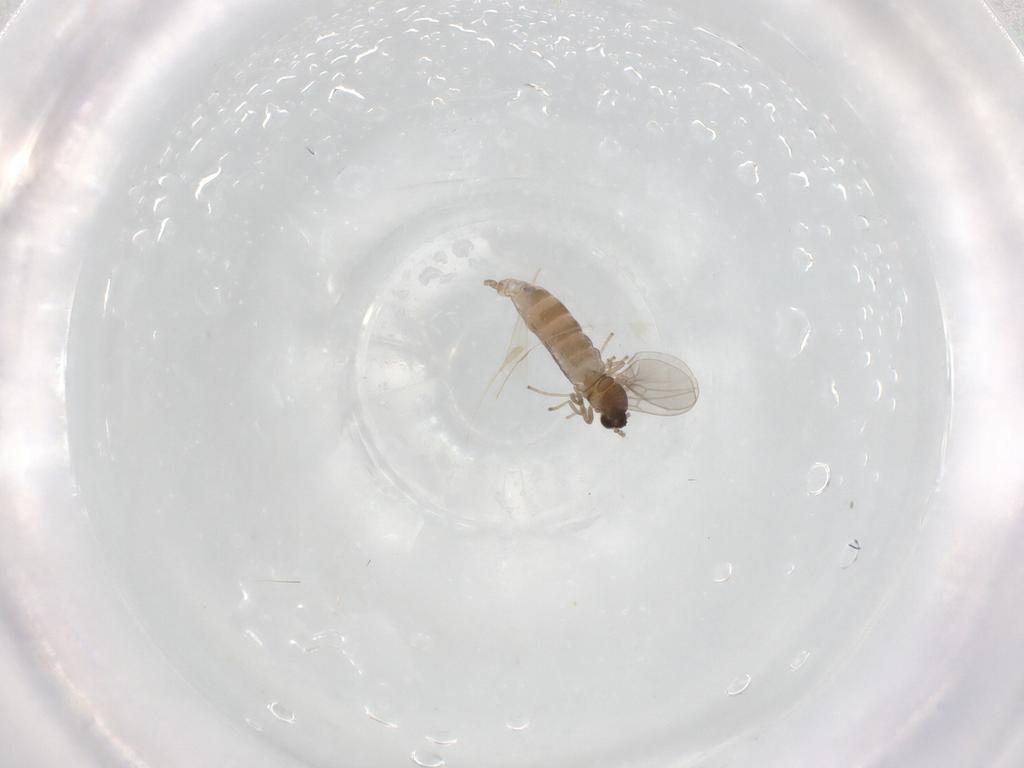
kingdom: Animalia
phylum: Arthropoda
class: Insecta
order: Diptera
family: Cecidomyiidae
